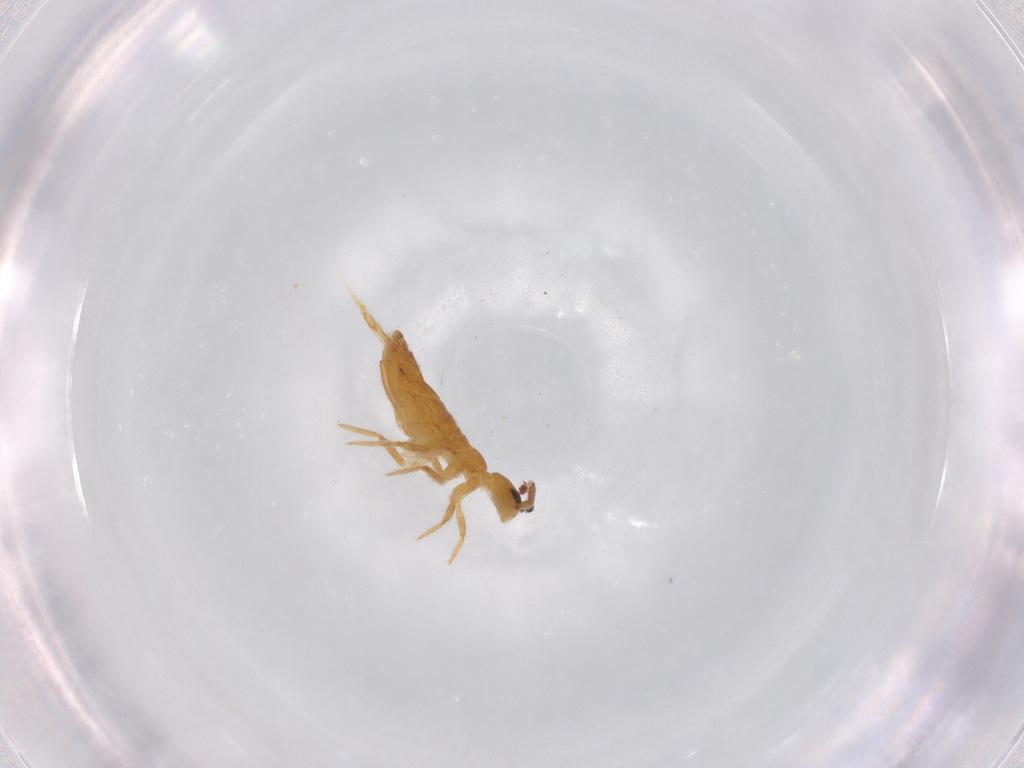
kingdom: Animalia
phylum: Arthropoda
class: Collembola
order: Entomobryomorpha
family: Entomobryidae
